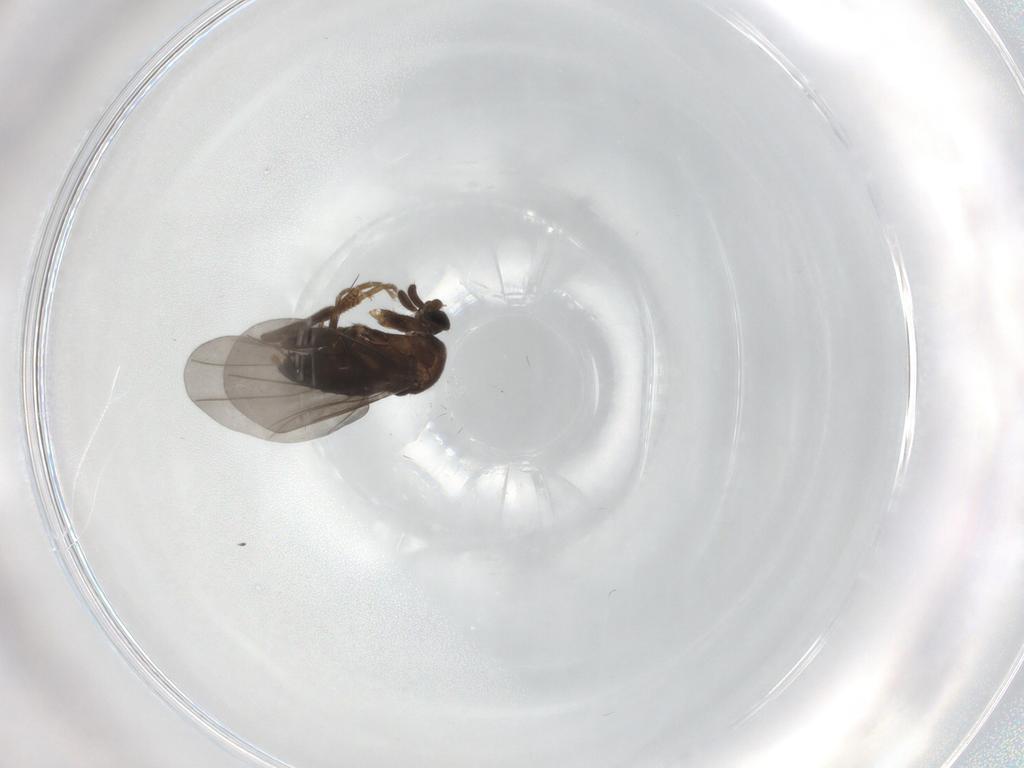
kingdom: Animalia
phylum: Arthropoda
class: Insecta
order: Diptera
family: Phoridae
